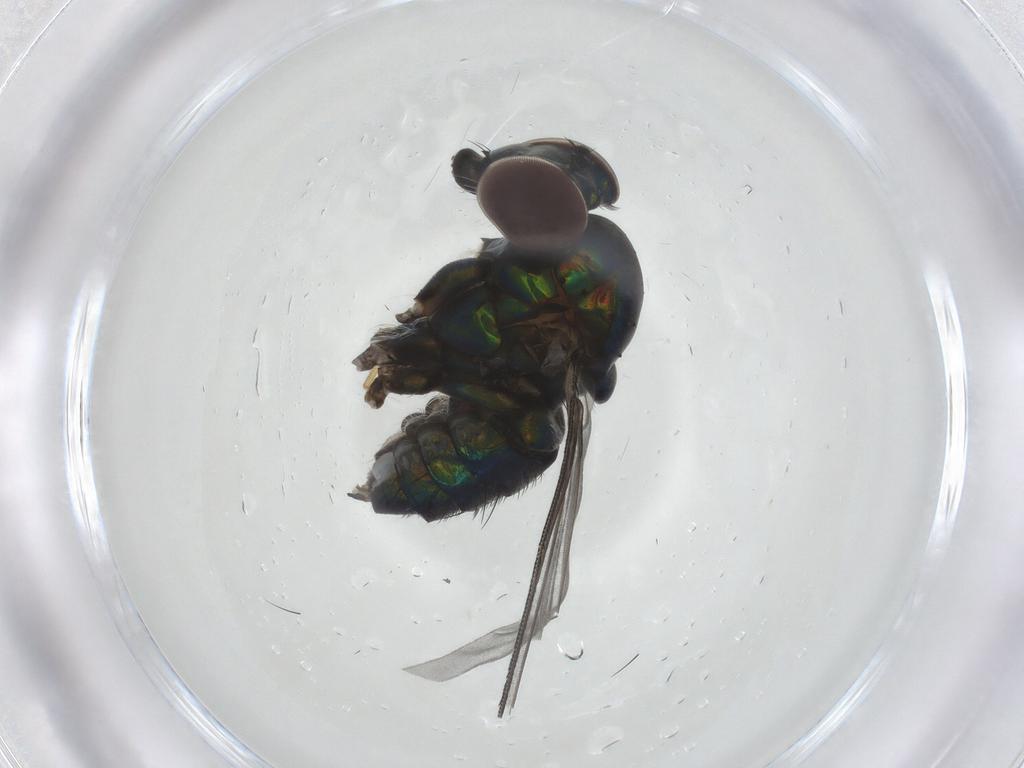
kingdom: Animalia
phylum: Arthropoda
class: Insecta
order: Diptera
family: Dolichopodidae
